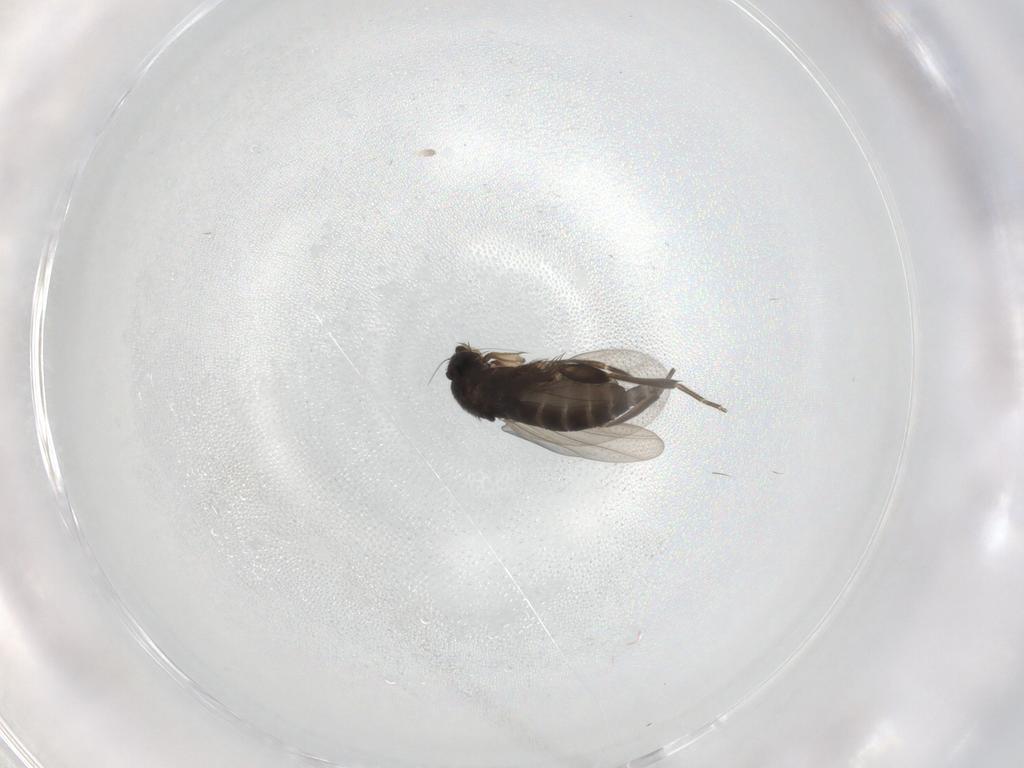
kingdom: Animalia
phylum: Arthropoda
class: Insecta
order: Diptera
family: Phoridae
